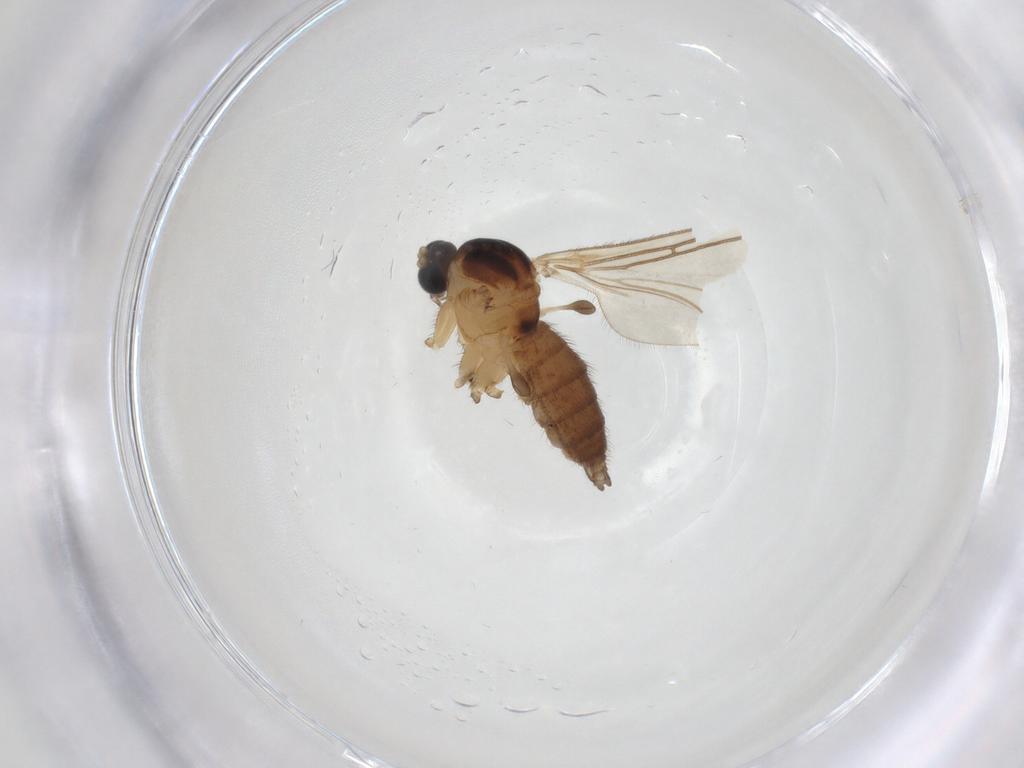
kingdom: Animalia
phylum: Arthropoda
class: Insecta
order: Diptera
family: Sciaridae
